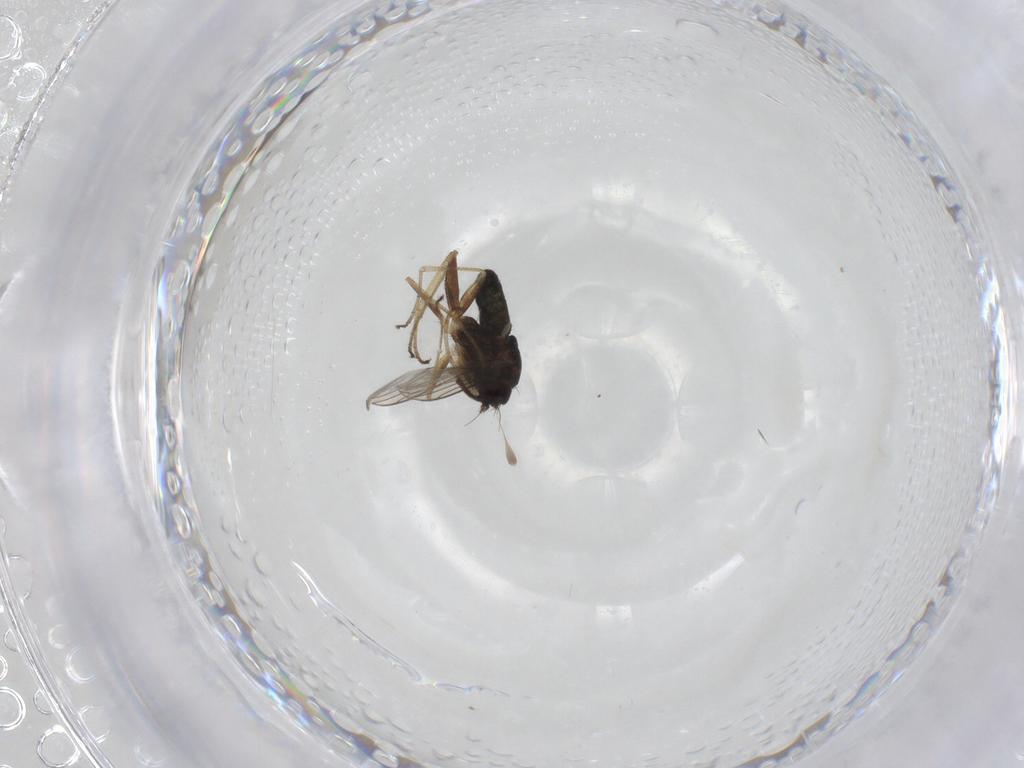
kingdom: Animalia
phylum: Arthropoda
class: Insecta
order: Diptera
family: Dolichopodidae
